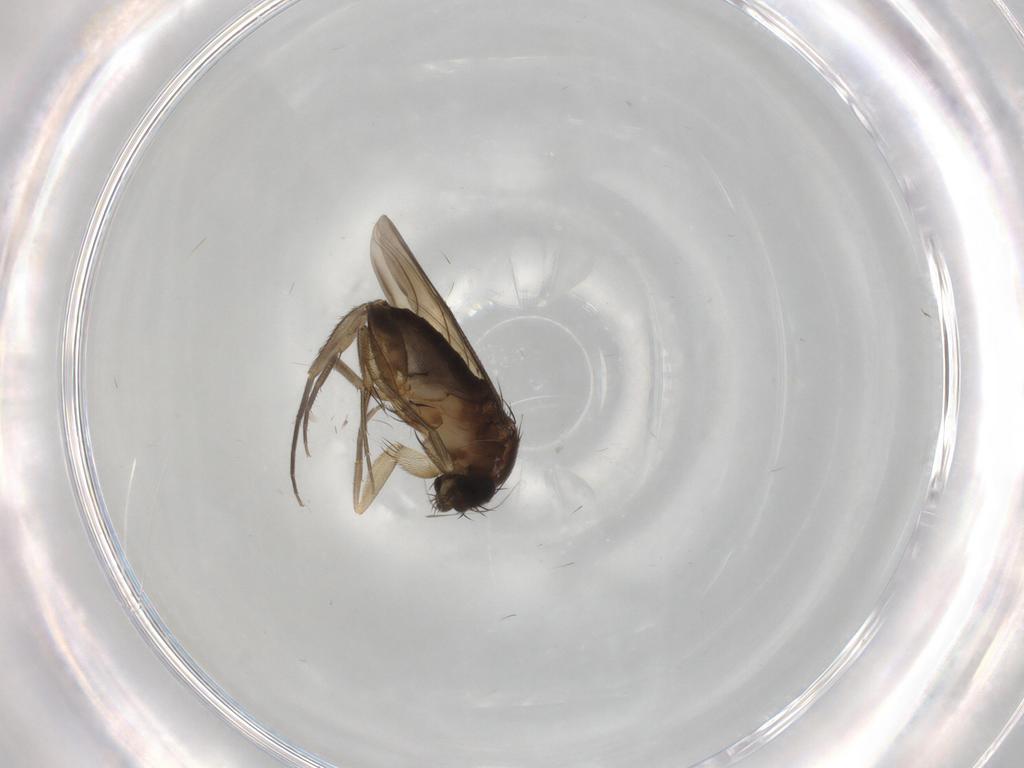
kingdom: Animalia
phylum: Arthropoda
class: Insecta
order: Diptera
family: Phoridae
